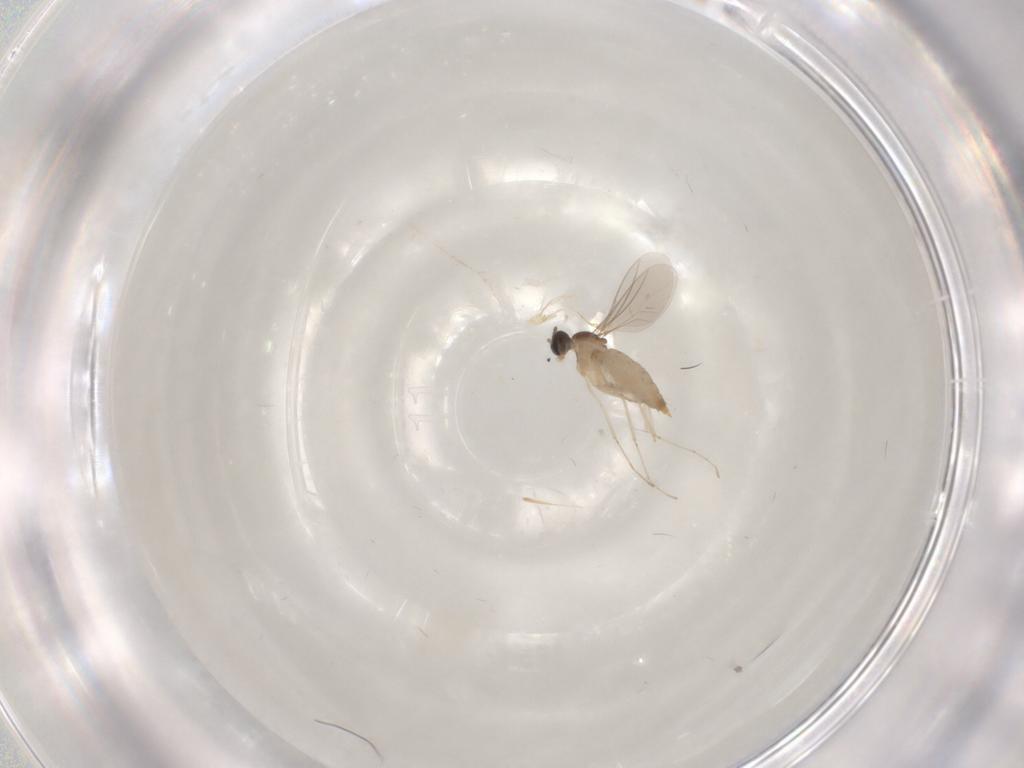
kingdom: Animalia
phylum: Arthropoda
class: Insecta
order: Diptera
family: Cecidomyiidae
